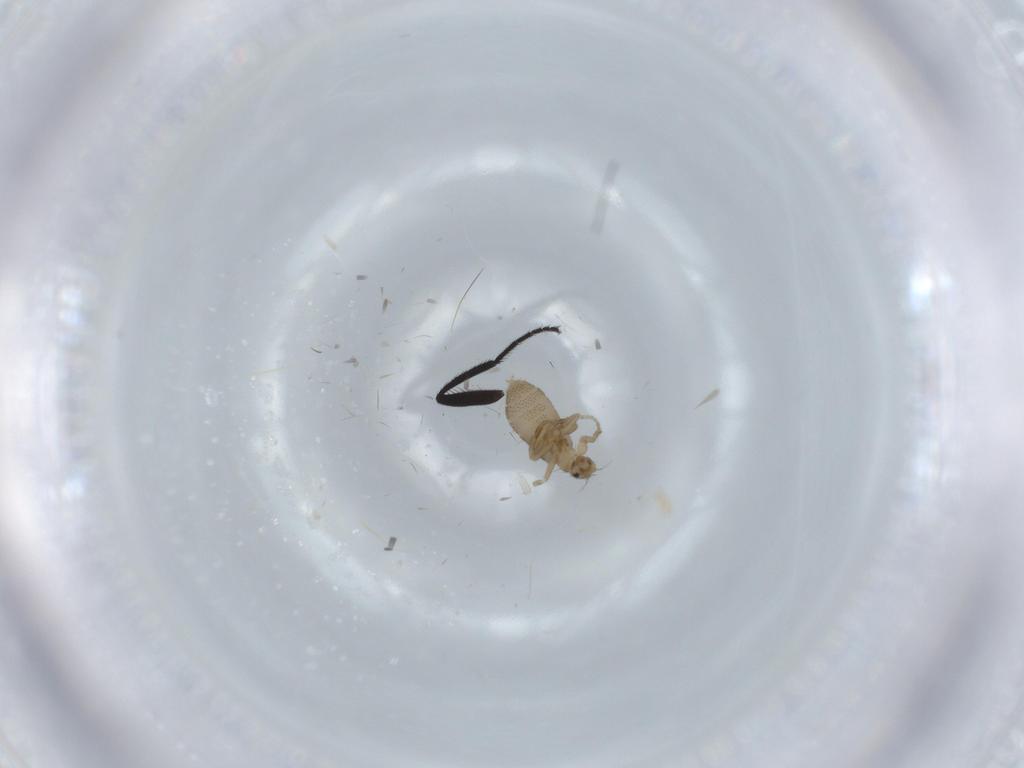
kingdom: Animalia
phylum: Arthropoda
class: Insecta
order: Diptera
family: Phoridae
